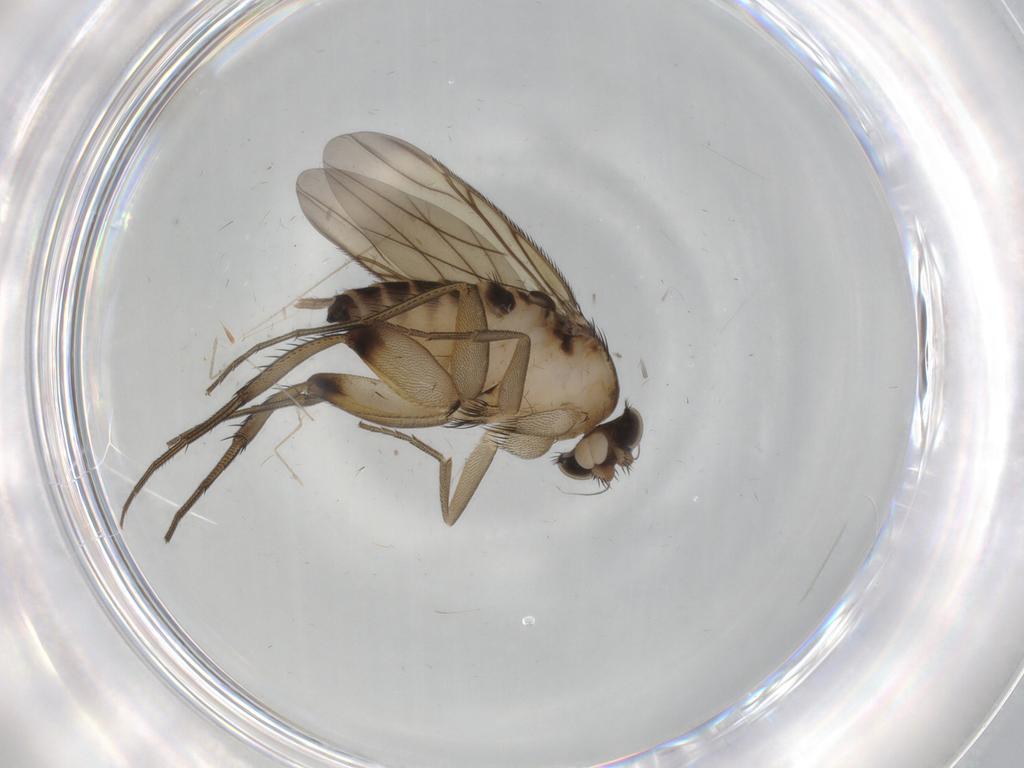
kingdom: Animalia
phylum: Arthropoda
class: Insecta
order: Diptera
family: Phoridae
